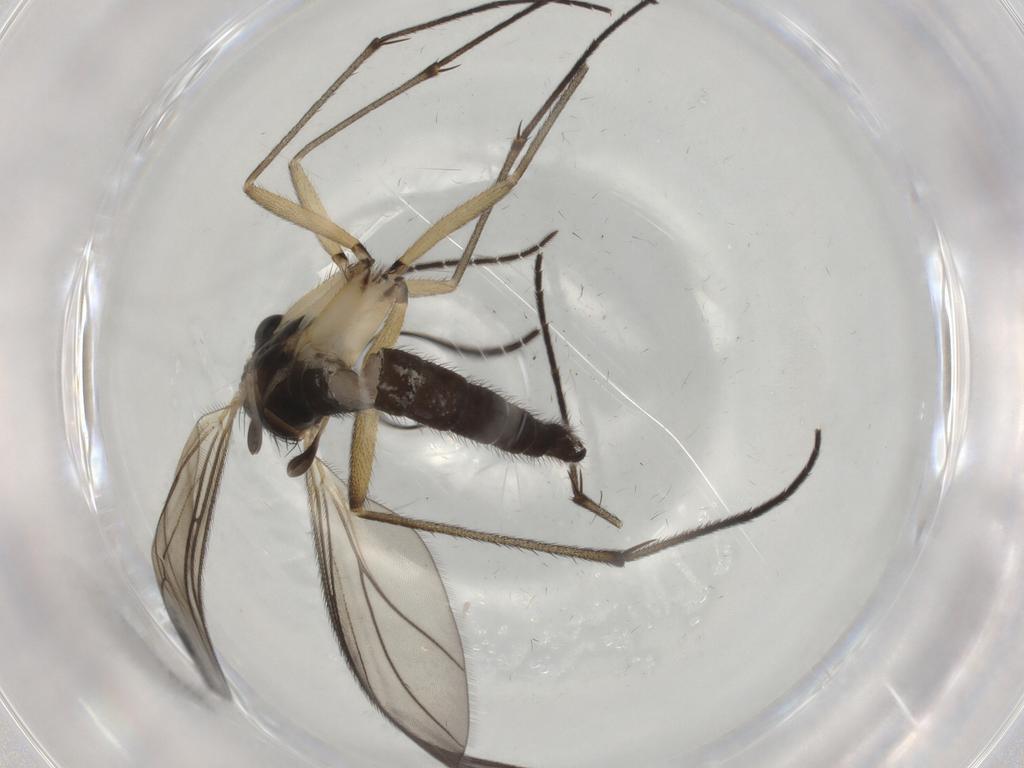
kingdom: Animalia
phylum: Arthropoda
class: Insecta
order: Diptera
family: Sciaridae
